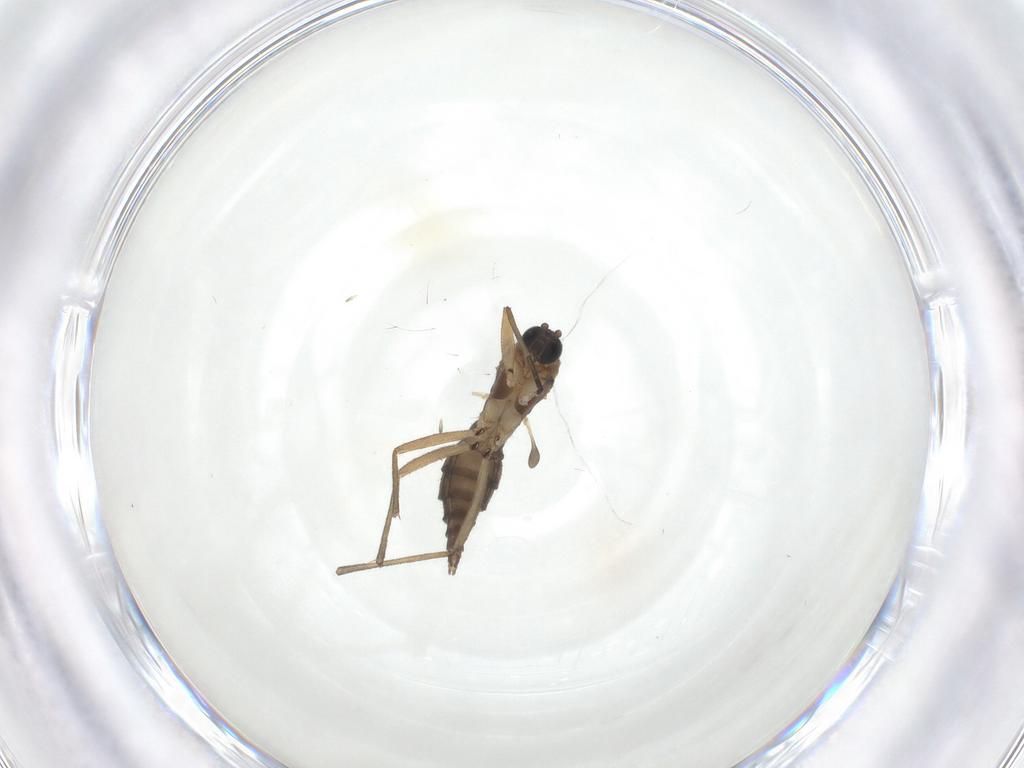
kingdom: Animalia
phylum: Arthropoda
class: Insecta
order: Diptera
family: Sciaridae
